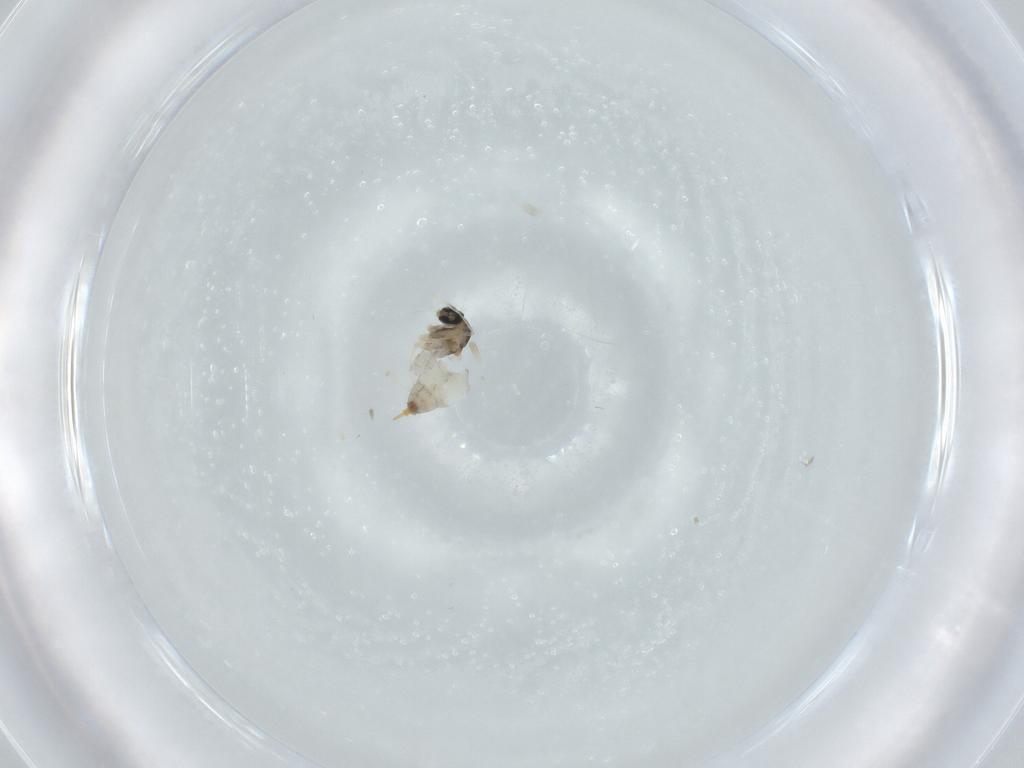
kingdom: Animalia
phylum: Arthropoda
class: Insecta
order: Diptera
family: Cecidomyiidae
